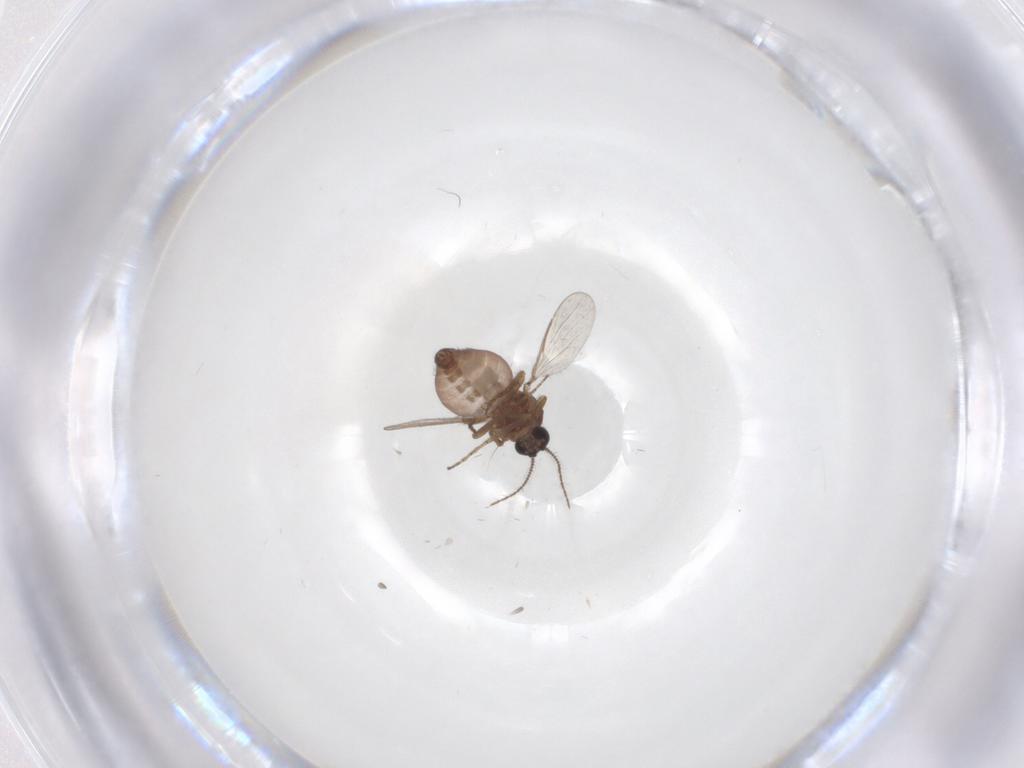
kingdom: Animalia
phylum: Arthropoda
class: Insecta
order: Diptera
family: Ceratopogonidae
